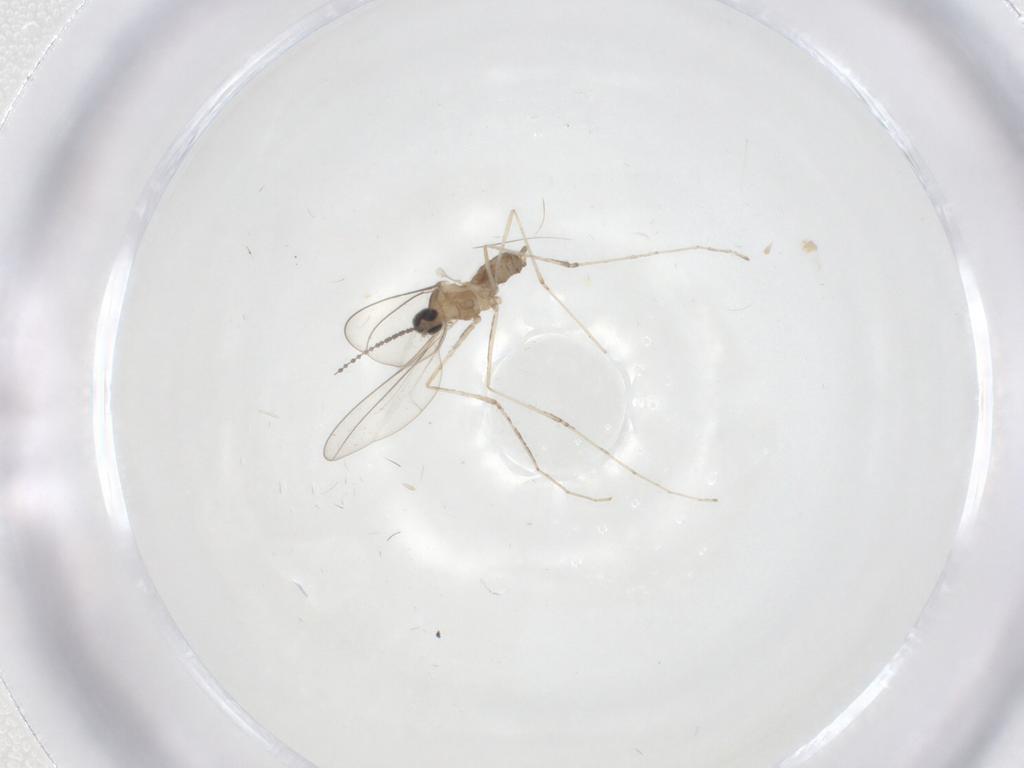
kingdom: Animalia
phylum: Arthropoda
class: Insecta
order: Diptera
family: Cecidomyiidae
